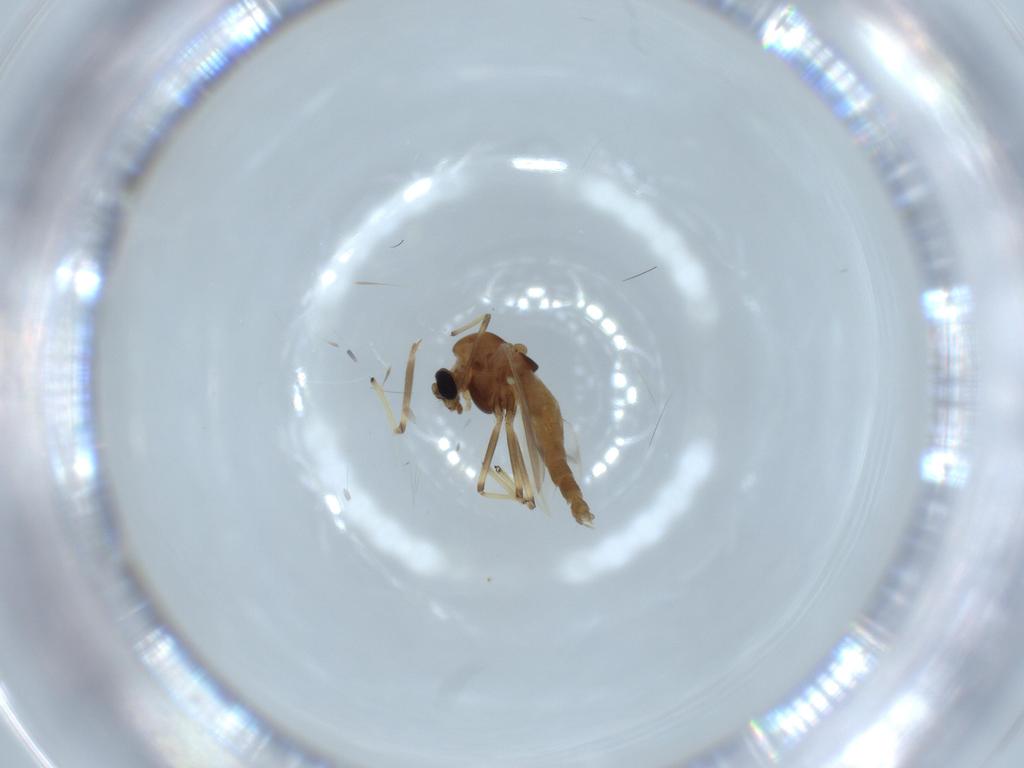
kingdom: Animalia
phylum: Arthropoda
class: Insecta
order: Diptera
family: Chironomidae
